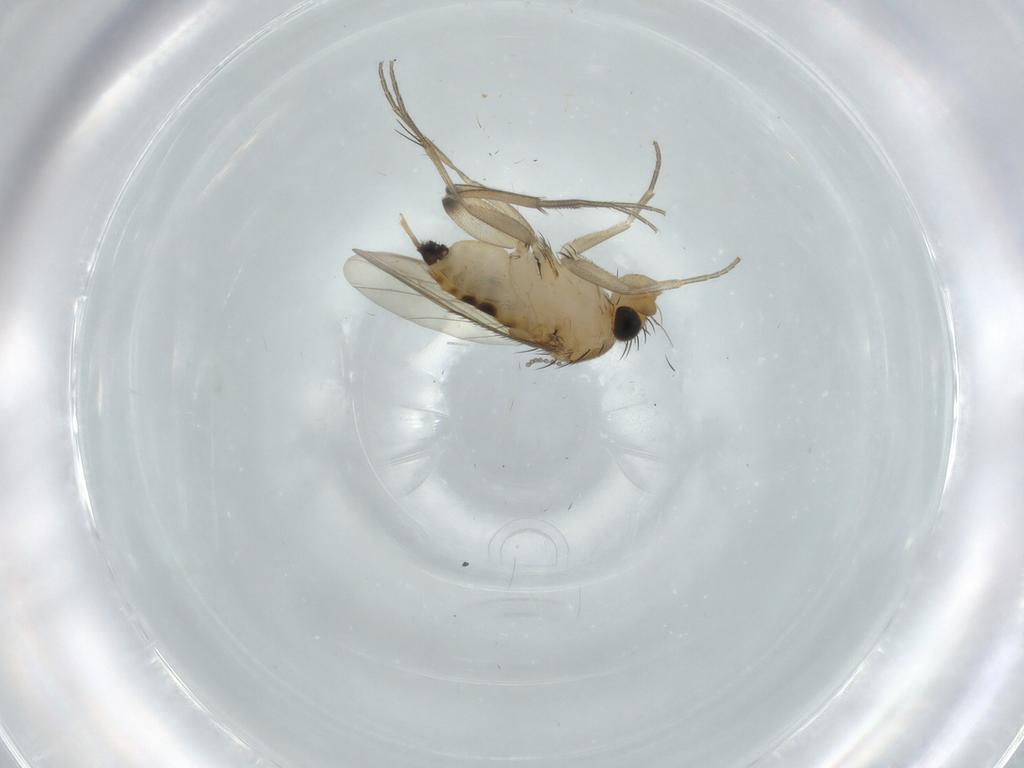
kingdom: Animalia
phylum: Arthropoda
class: Insecta
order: Diptera
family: Phoridae
